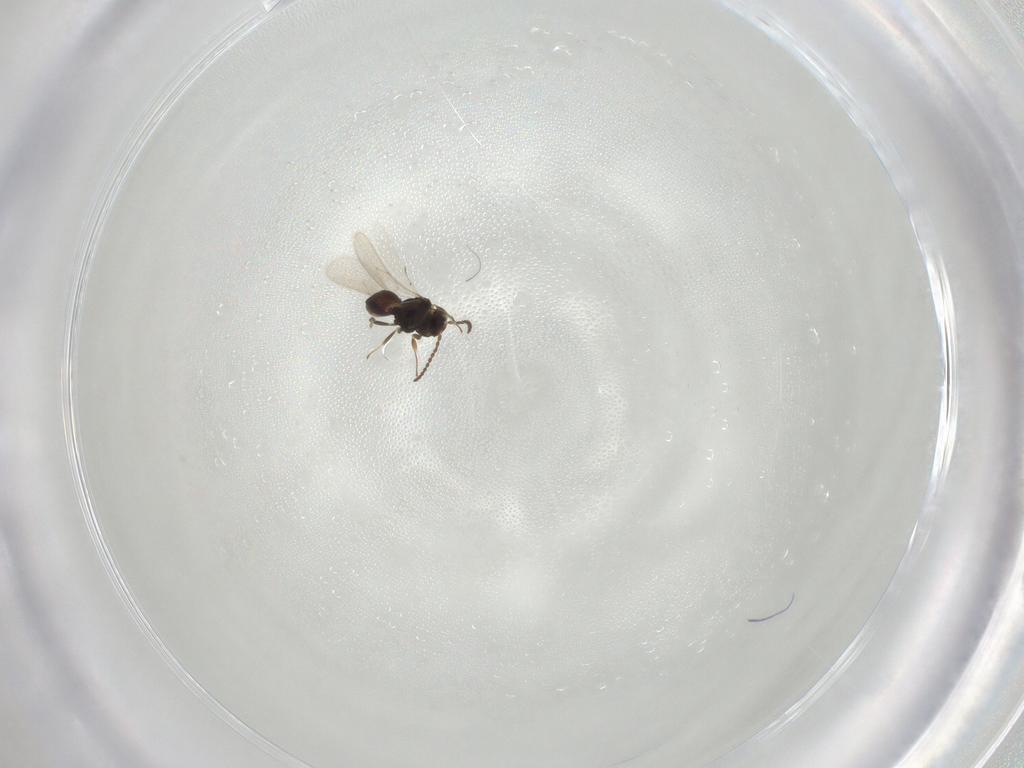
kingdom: Animalia
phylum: Arthropoda
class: Insecta
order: Hymenoptera
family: Scelionidae
